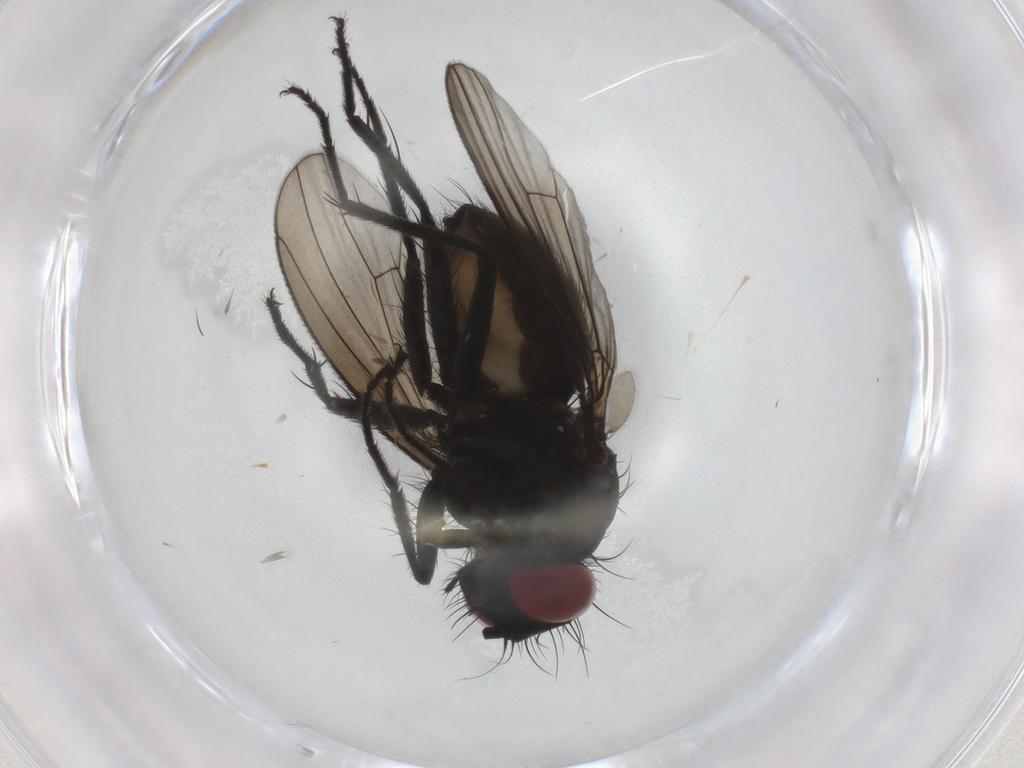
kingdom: Animalia
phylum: Arthropoda
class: Insecta
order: Diptera
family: Muscidae
